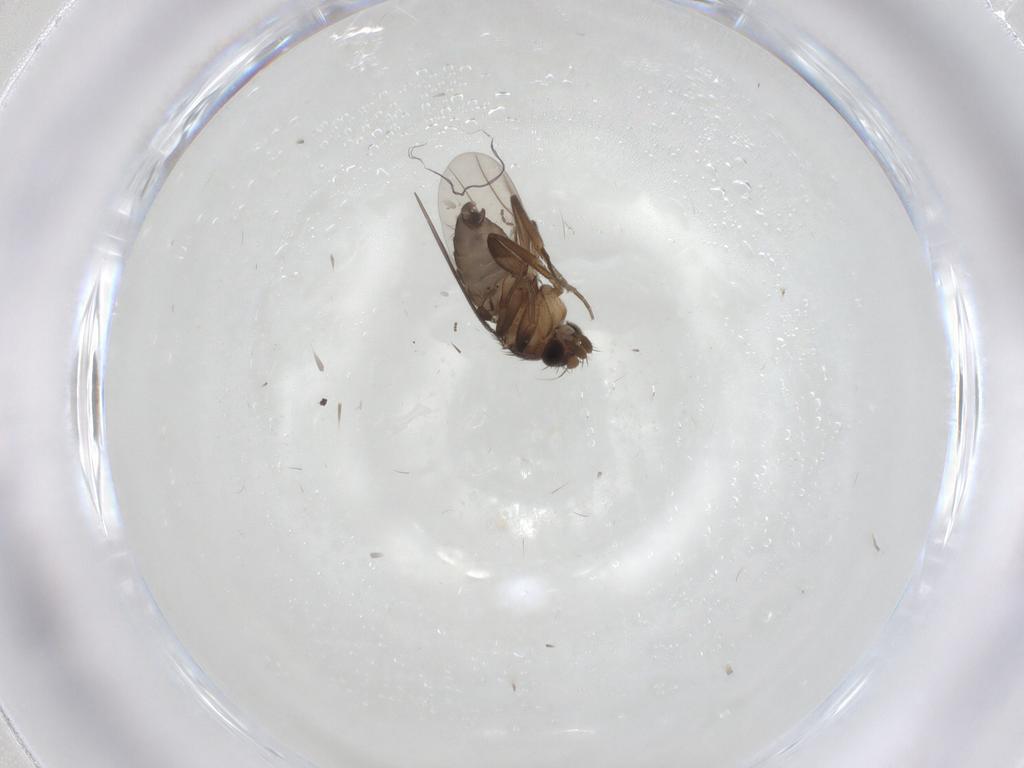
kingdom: Animalia
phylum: Arthropoda
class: Insecta
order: Diptera
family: Phoridae
